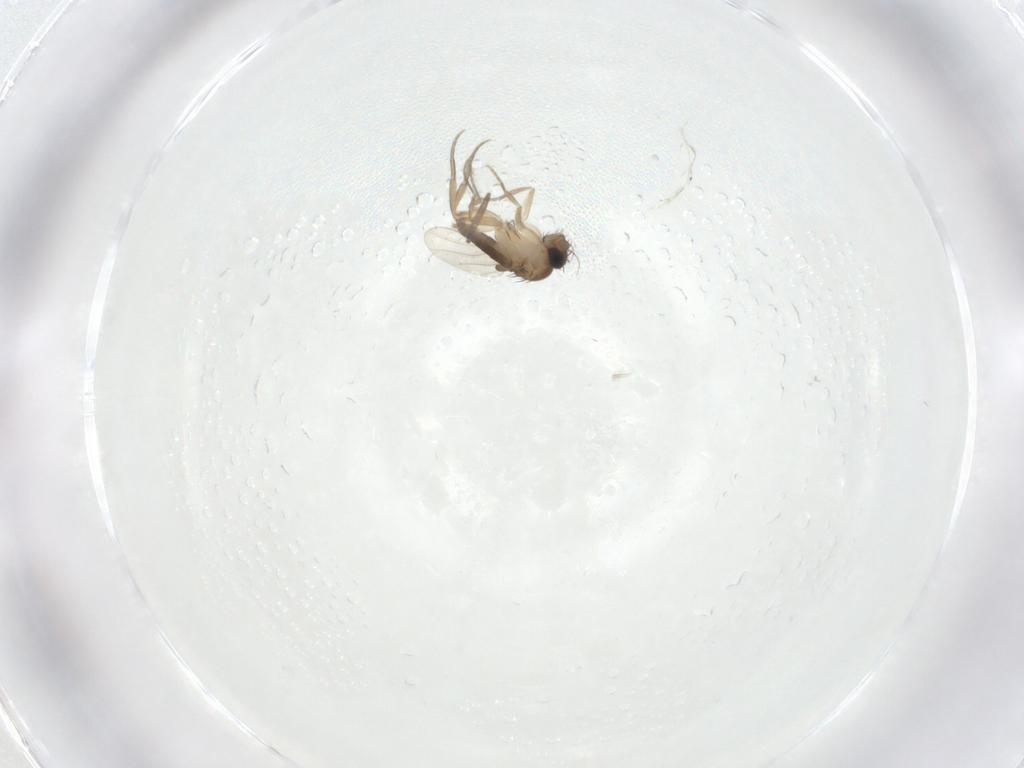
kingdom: Animalia
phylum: Arthropoda
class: Insecta
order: Diptera
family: Phoridae
